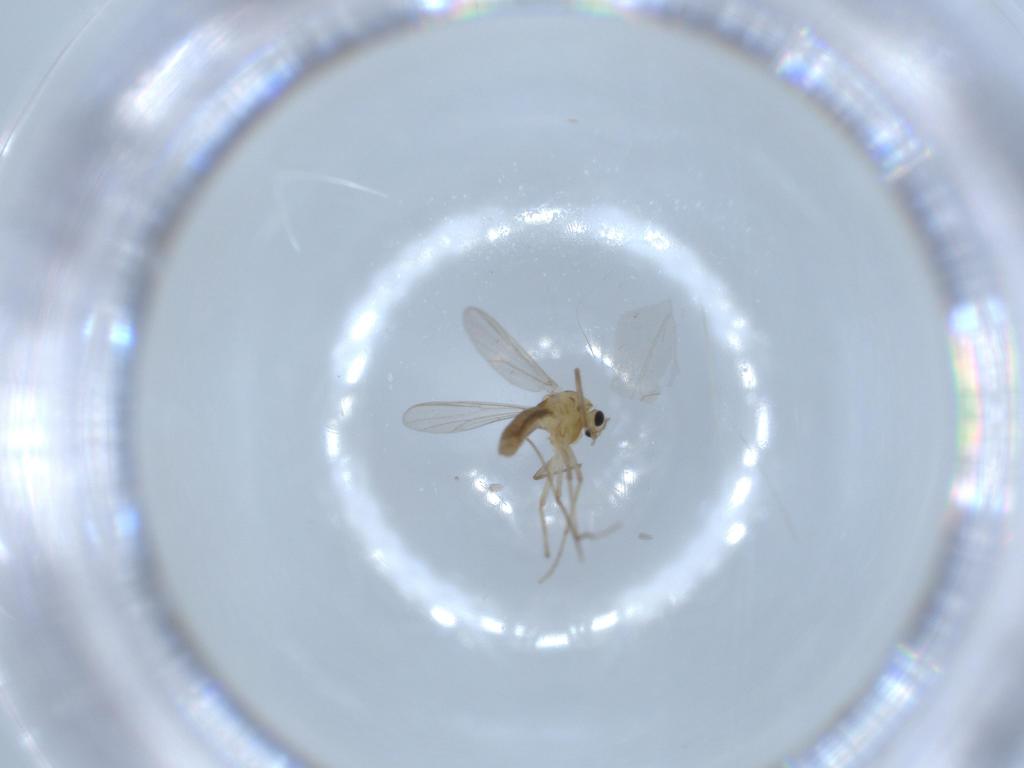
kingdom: Animalia
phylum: Arthropoda
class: Insecta
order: Diptera
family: Chironomidae
